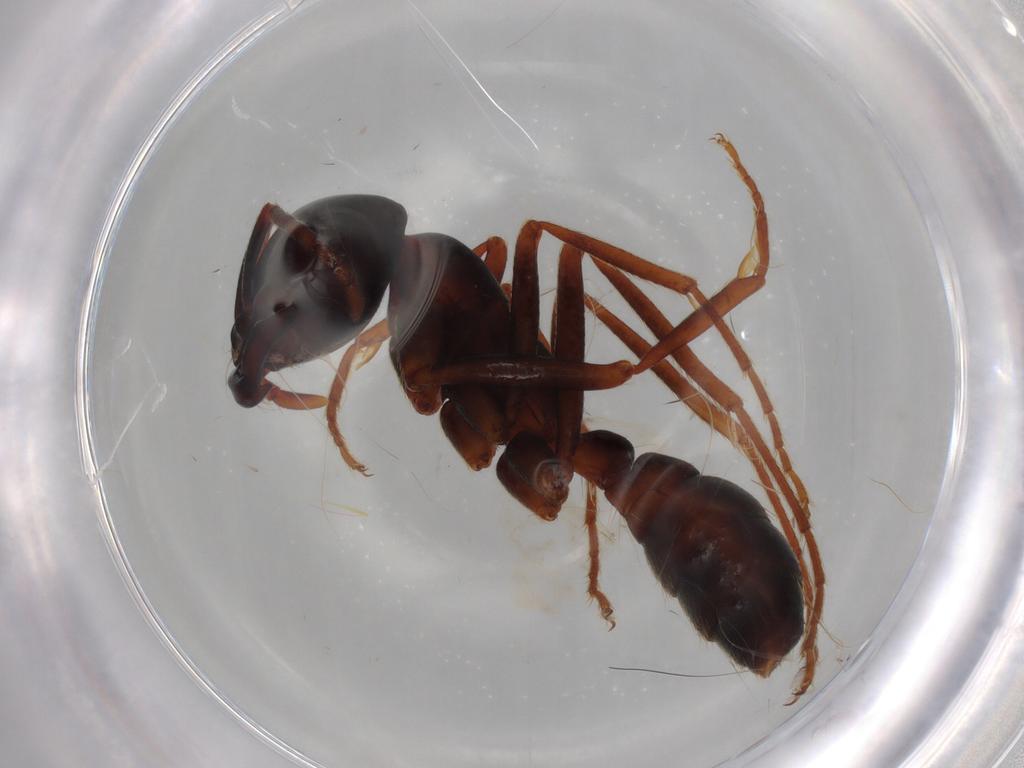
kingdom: Animalia
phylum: Arthropoda
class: Insecta
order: Hymenoptera
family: Formicidae
